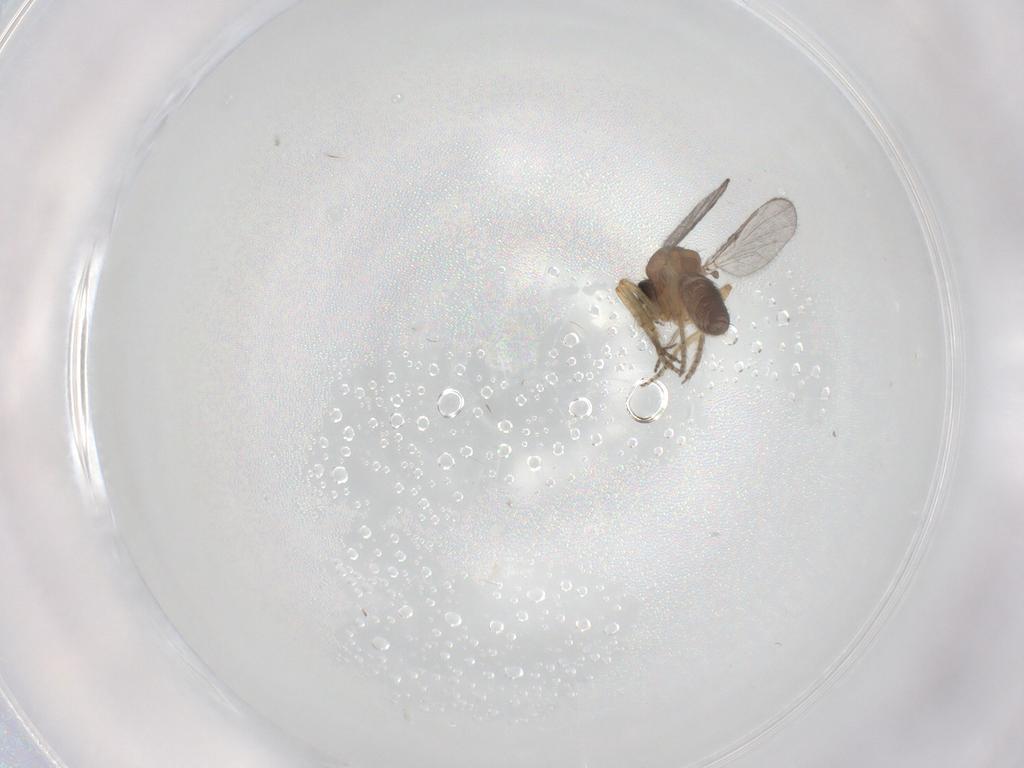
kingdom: Animalia
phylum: Arthropoda
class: Insecta
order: Diptera
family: Ceratopogonidae
